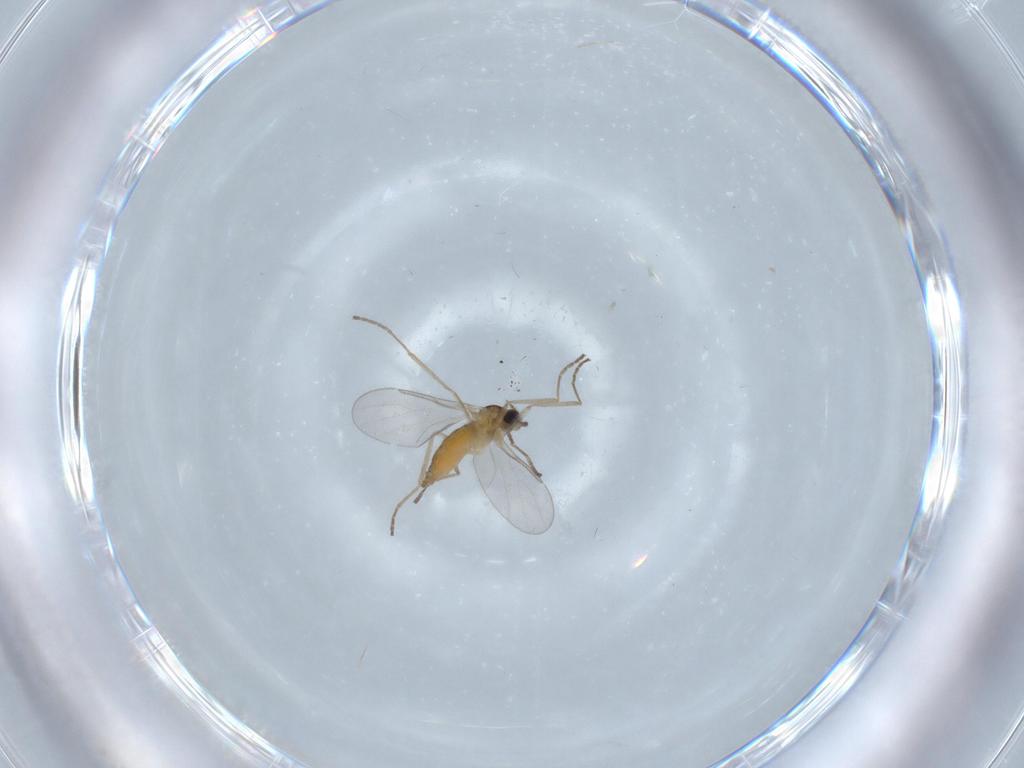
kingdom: Animalia
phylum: Arthropoda
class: Insecta
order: Diptera
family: Cecidomyiidae
